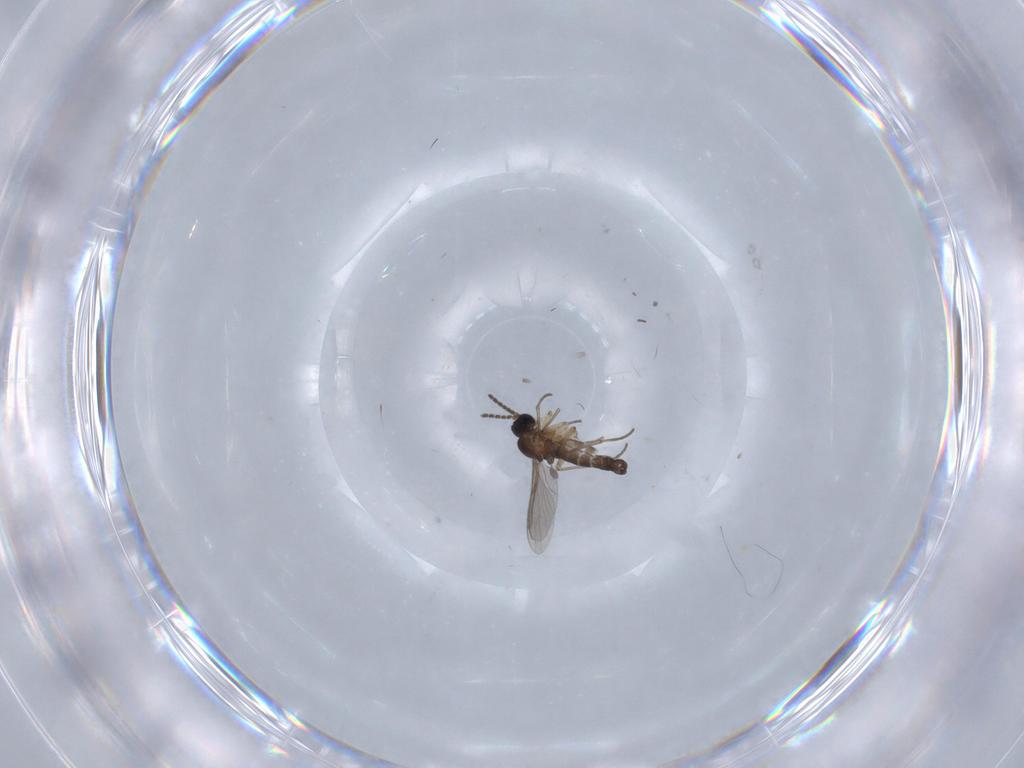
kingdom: Animalia
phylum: Arthropoda
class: Insecta
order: Diptera
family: Sciaridae
